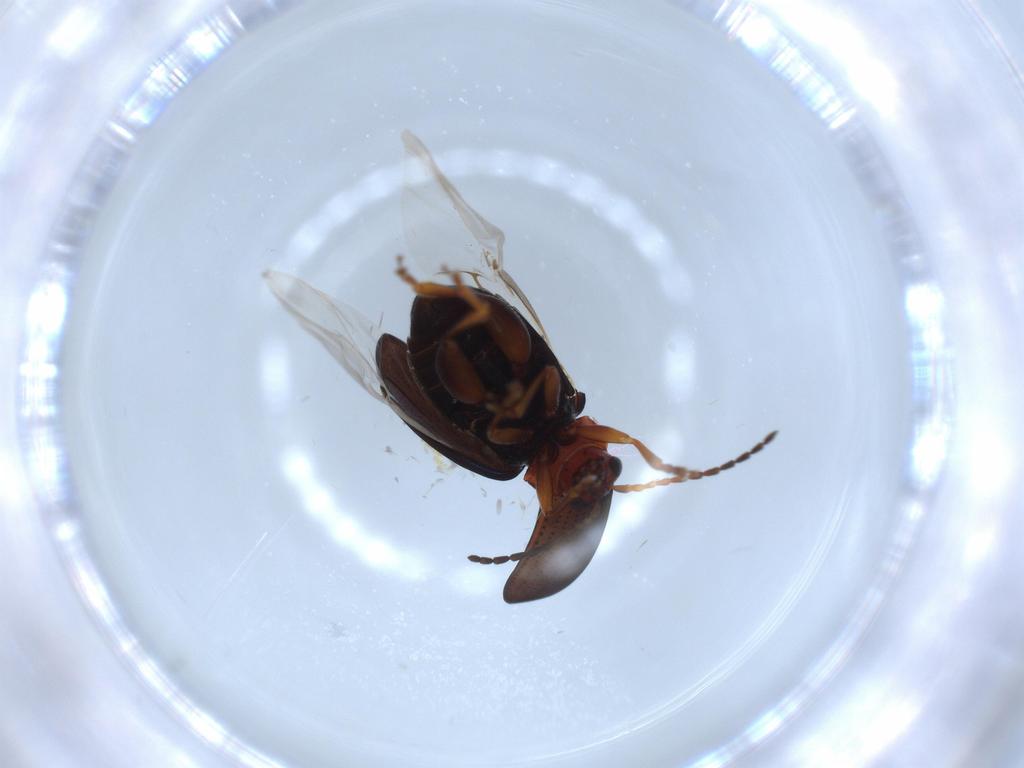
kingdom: Animalia
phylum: Arthropoda
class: Insecta
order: Coleoptera
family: Chrysomelidae
